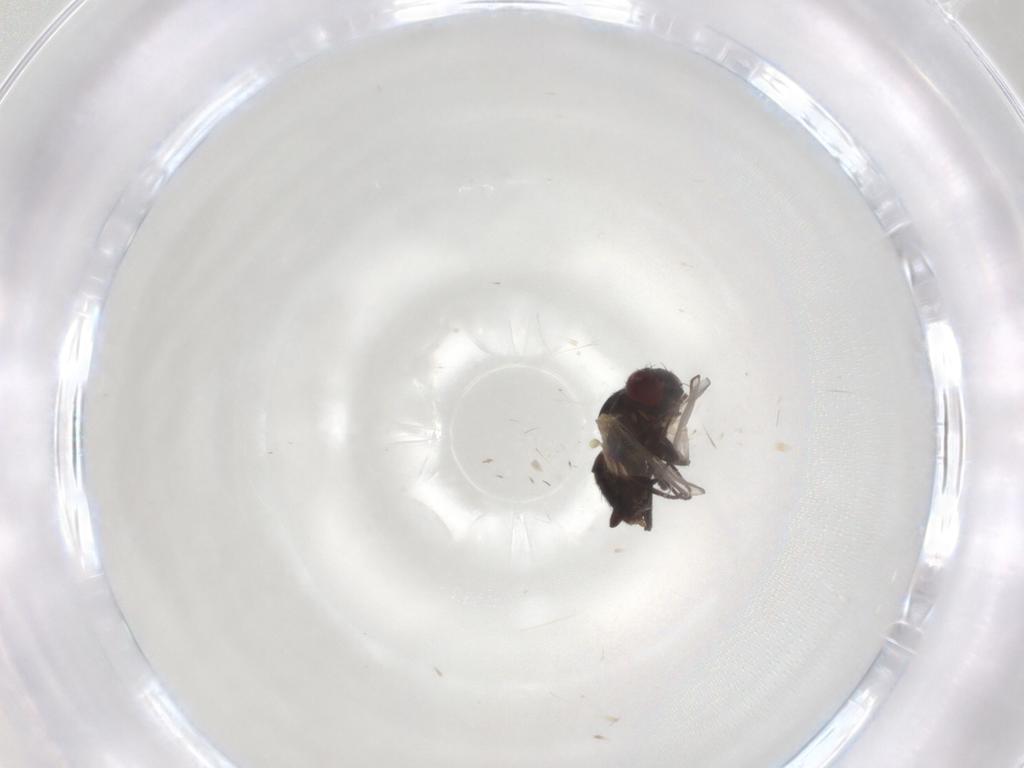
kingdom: Animalia
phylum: Arthropoda
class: Insecta
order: Diptera
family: Phoridae
